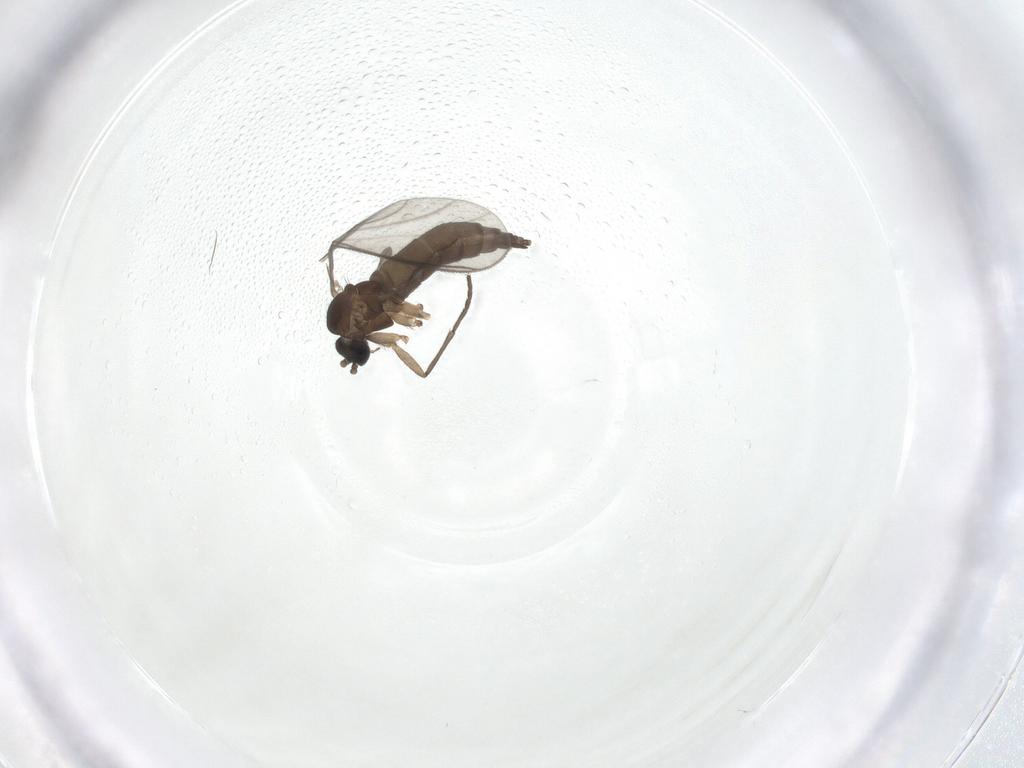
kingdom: Animalia
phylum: Arthropoda
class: Insecta
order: Diptera
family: Sciaridae
